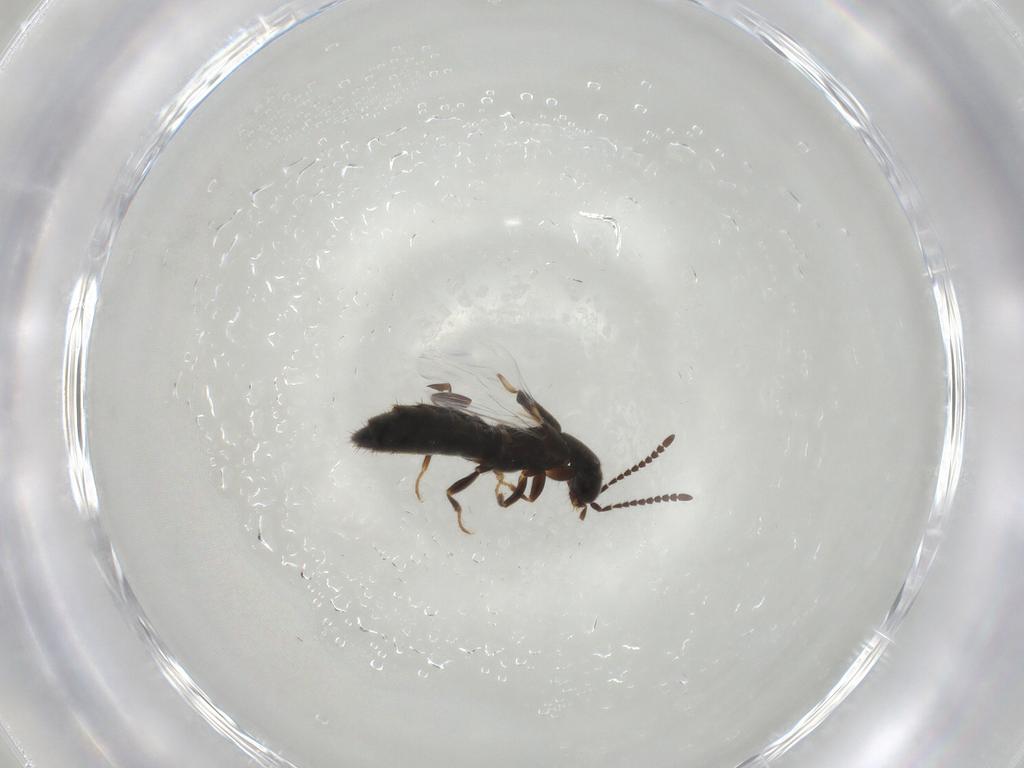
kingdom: Animalia
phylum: Arthropoda
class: Insecta
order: Coleoptera
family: Staphylinidae
